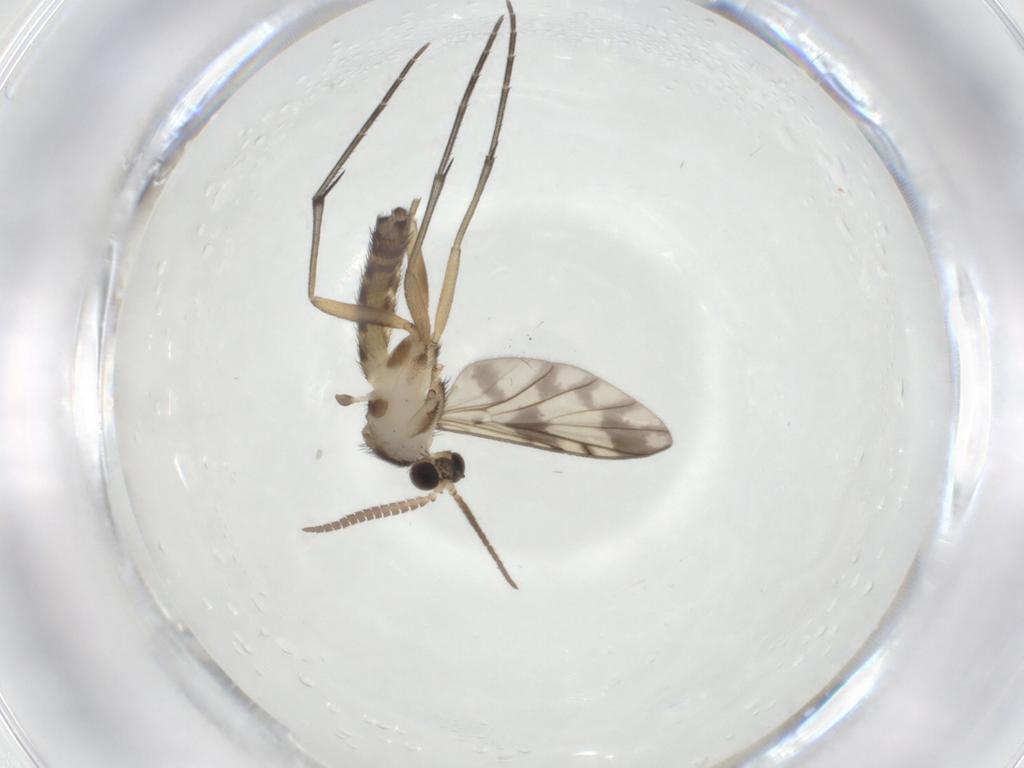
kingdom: Animalia
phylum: Arthropoda
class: Insecta
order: Diptera
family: Keroplatidae
